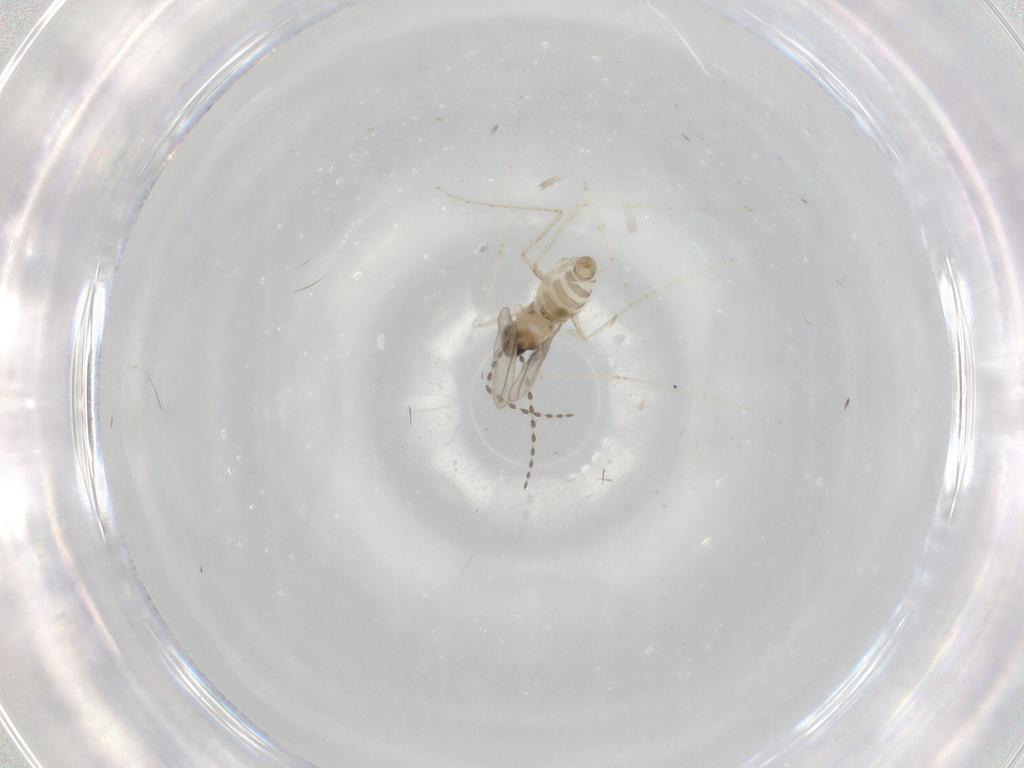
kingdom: Animalia
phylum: Arthropoda
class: Insecta
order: Diptera
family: Cecidomyiidae
